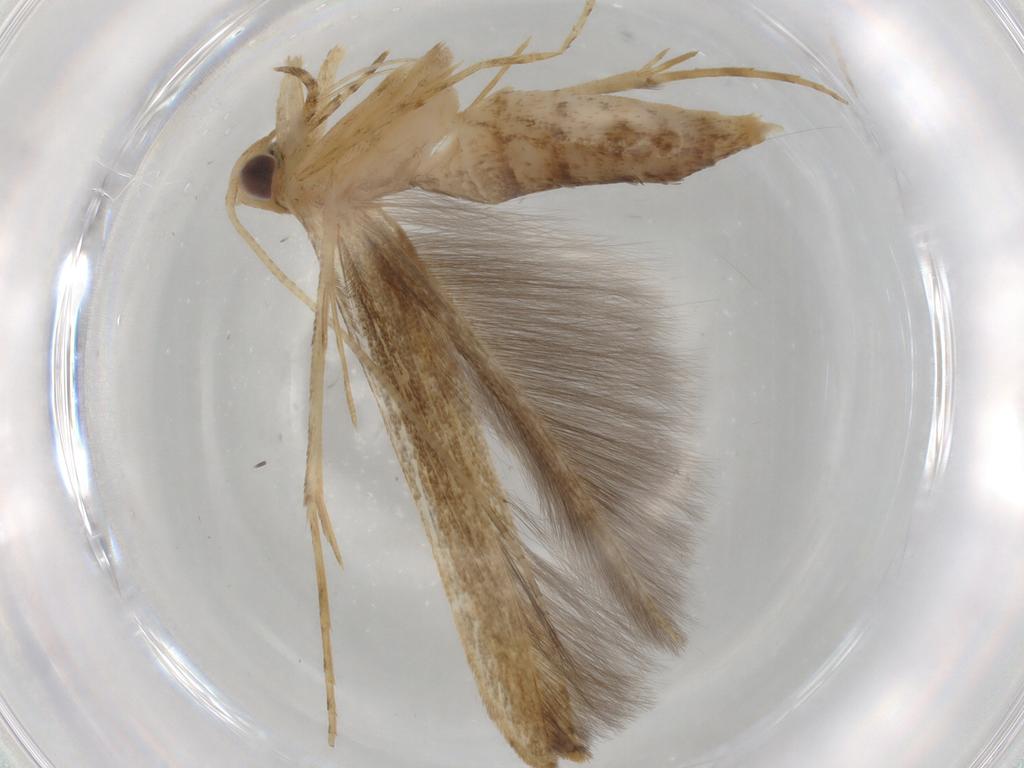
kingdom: Animalia
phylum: Arthropoda
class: Insecta
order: Lepidoptera
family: Batrachedridae
